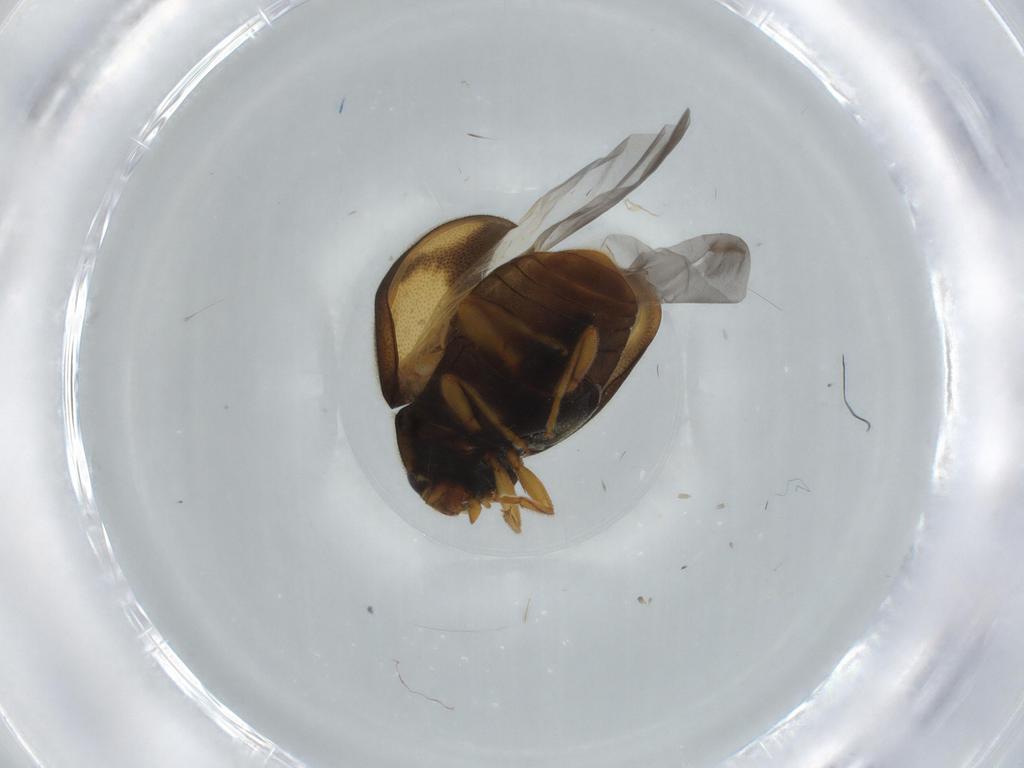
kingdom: Animalia
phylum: Arthropoda
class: Insecta
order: Coleoptera
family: Coccinellidae
